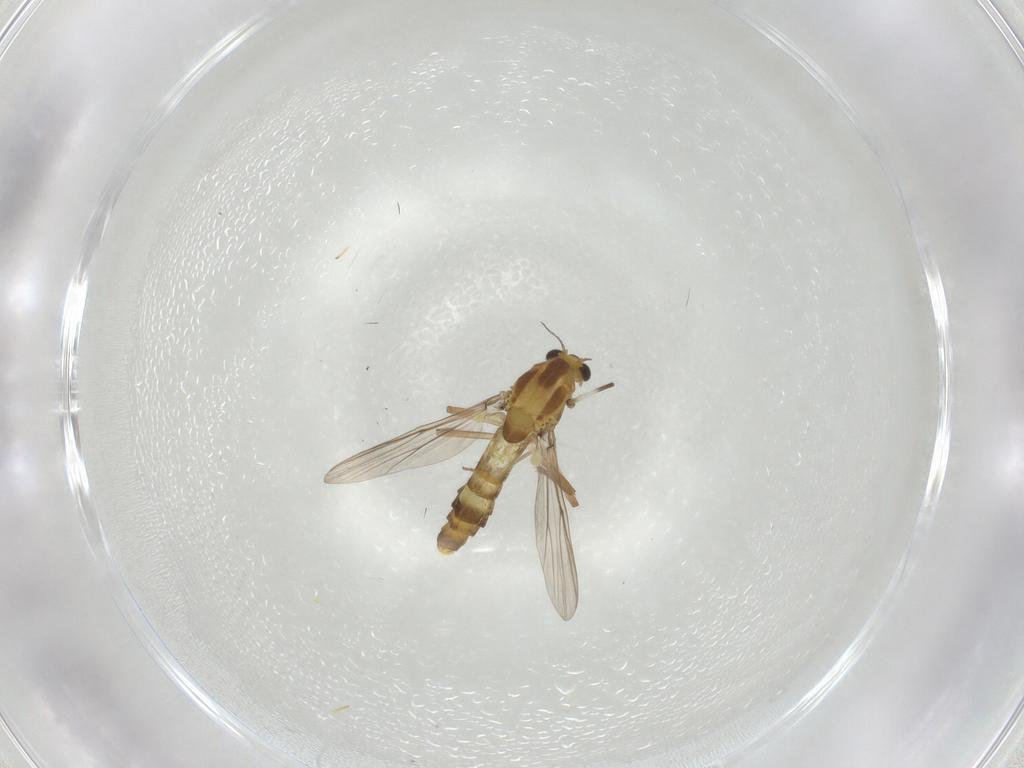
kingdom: Animalia
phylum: Arthropoda
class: Insecta
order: Diptera
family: Chironomidae
